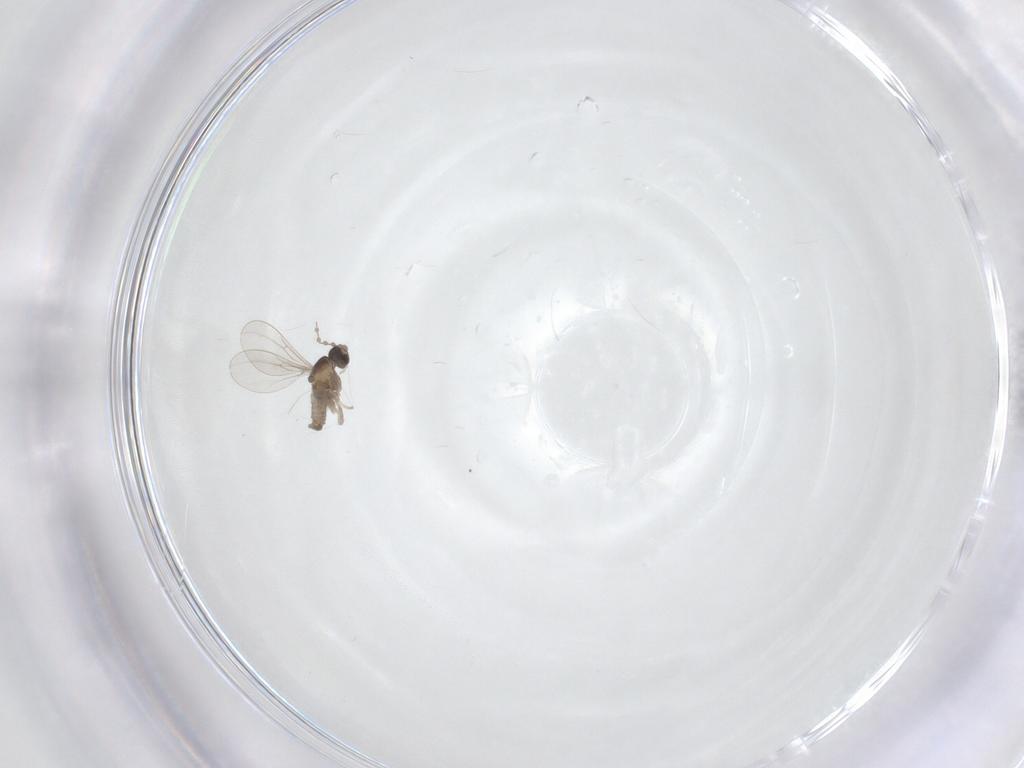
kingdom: Animalia
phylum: Arthropoda
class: Insecta
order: Diptera
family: Cecidomyiidae
